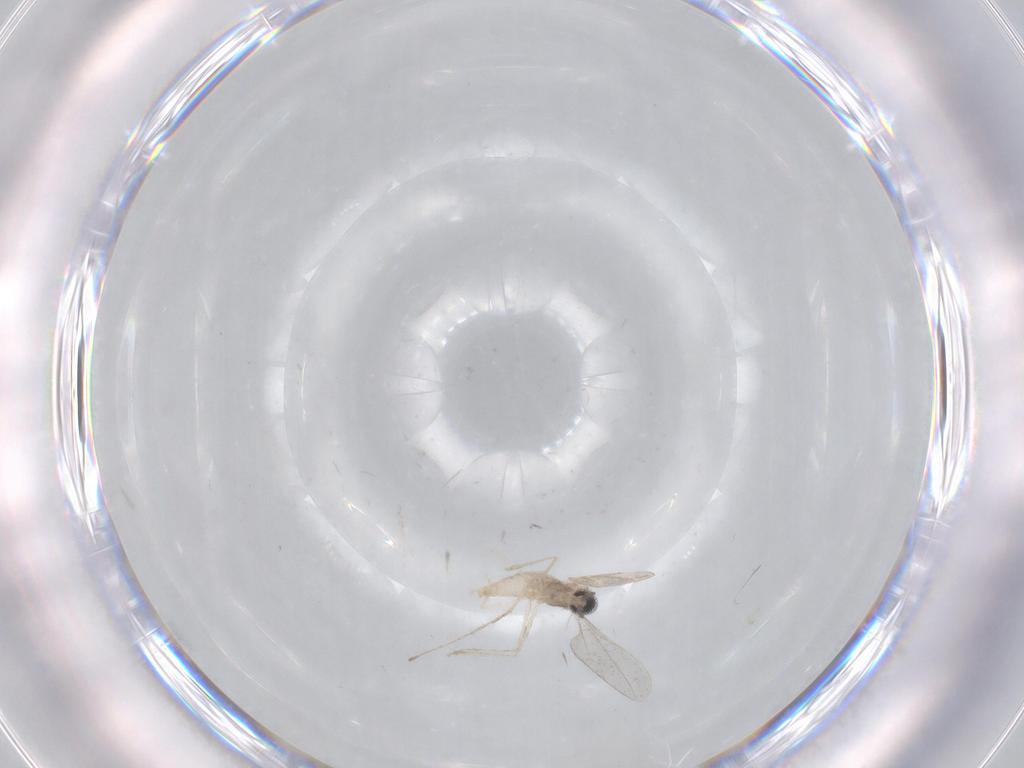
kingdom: Animalia
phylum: Arthropoda
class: Insecta
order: Diptera
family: Cecidomyiidae
